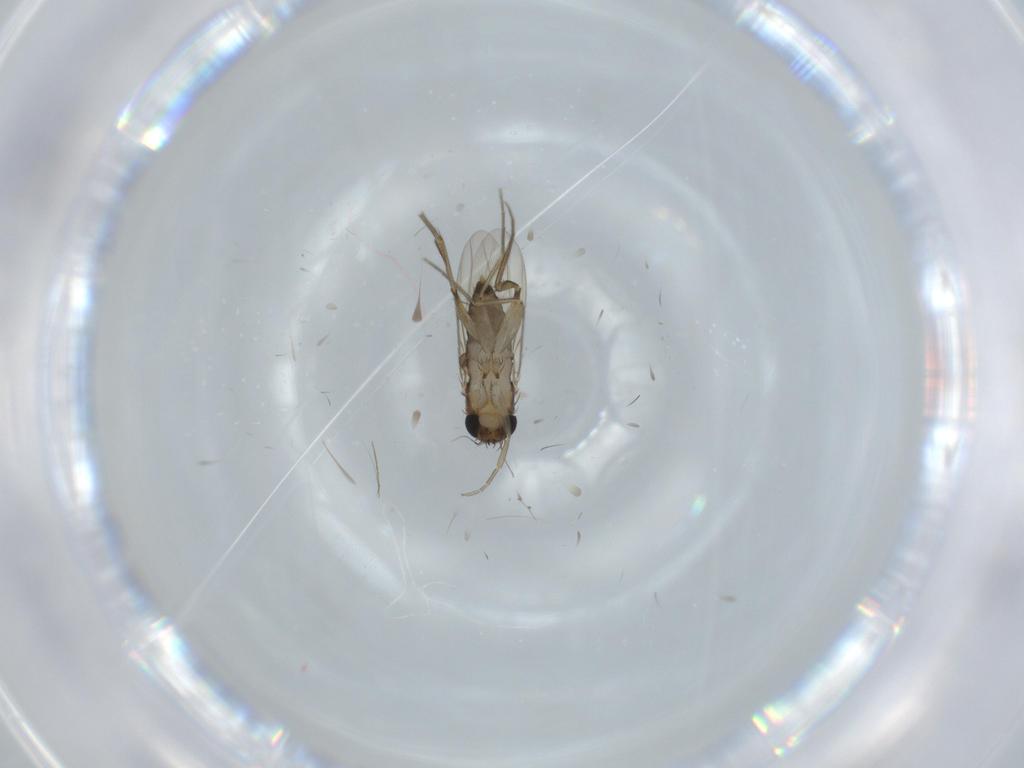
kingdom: Animalia
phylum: Arthropoda
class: Insecta
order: Diptera
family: Phoridae
